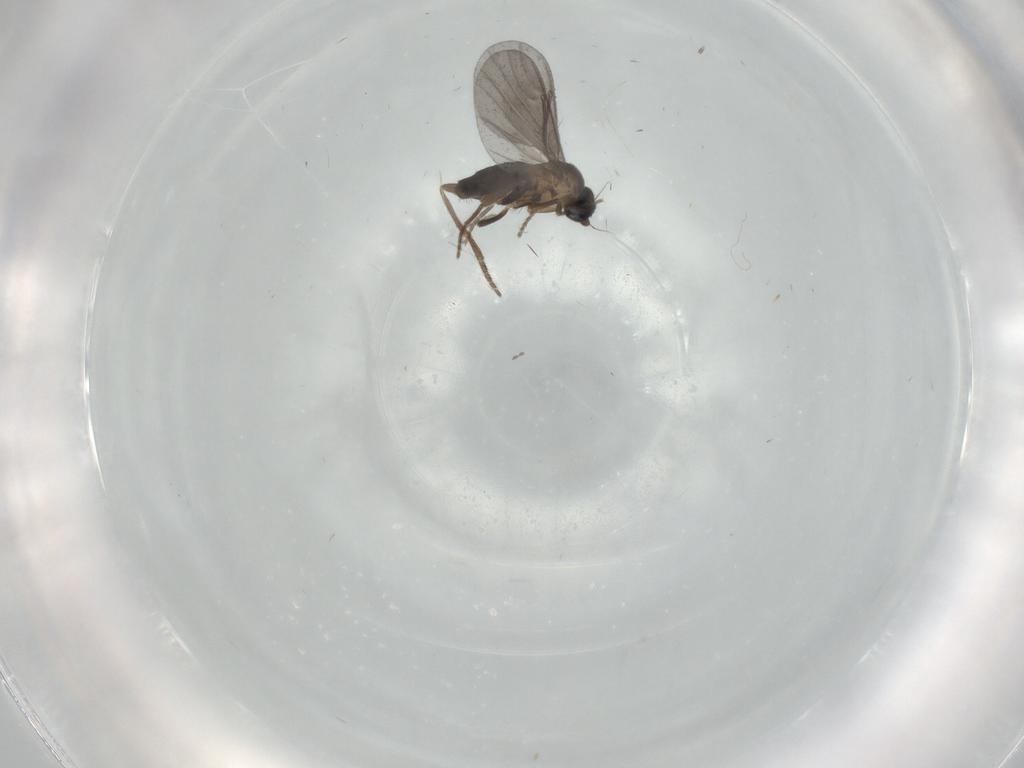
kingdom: Animalia
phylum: Arthropoda
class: Insecta
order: Diptera
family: Phoridae
